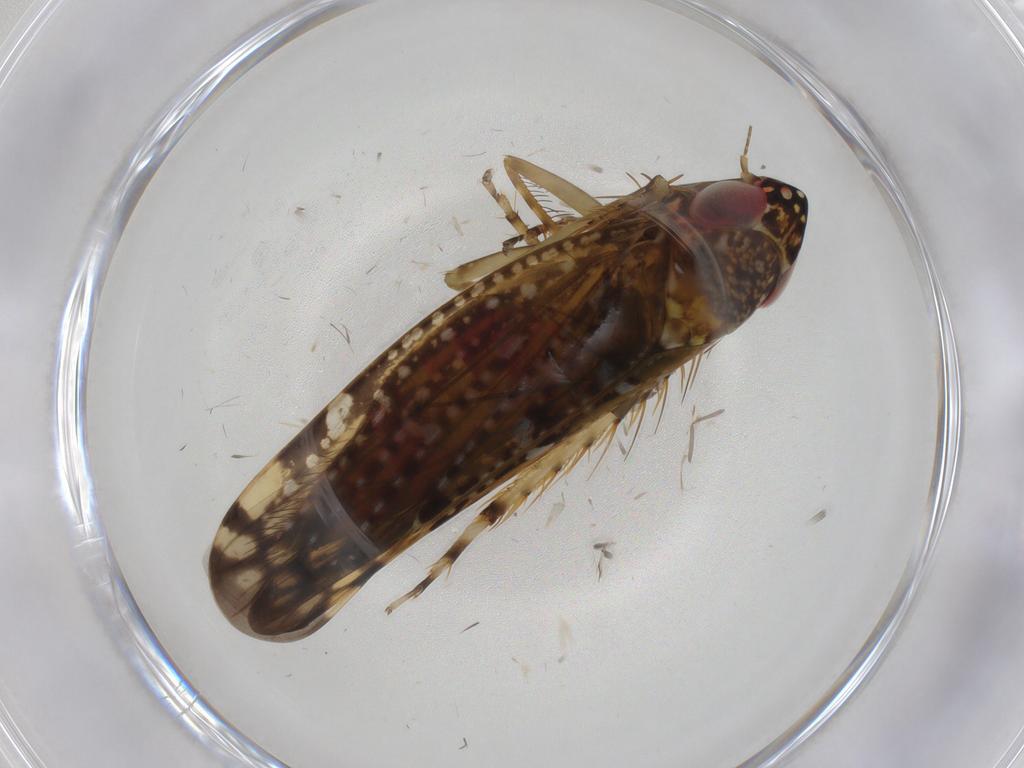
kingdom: Animalia
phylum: Arthropoda
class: Insecta
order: Hemiptera
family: Cicadellidae
